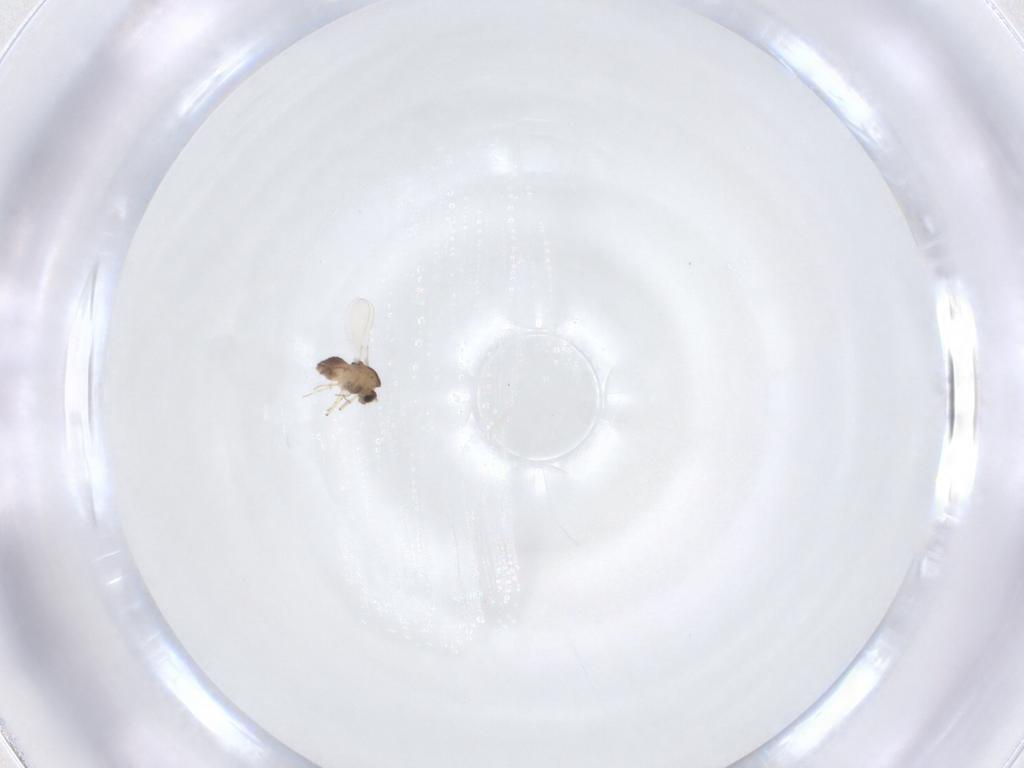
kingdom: Animalia
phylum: Arthropoda
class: Insecta
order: Diptera
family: Chironomidae
